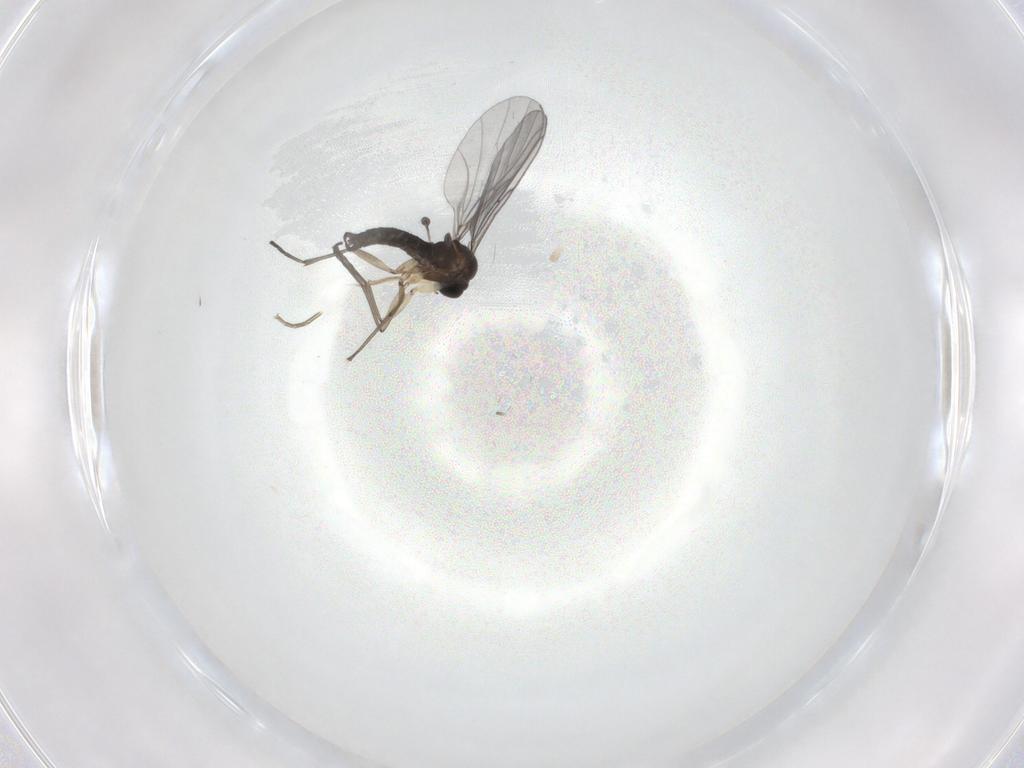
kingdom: Animalia
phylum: Arthropoda
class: Insecta
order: Diptera
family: Sciaridae
